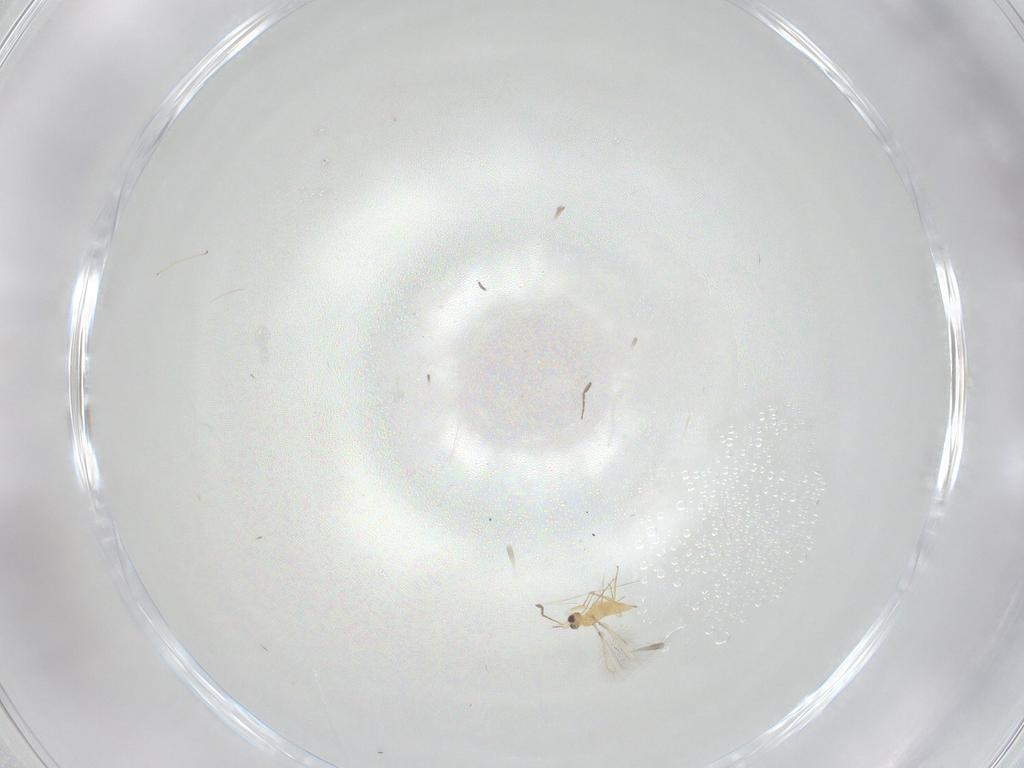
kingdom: Animalia
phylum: Arthropoda
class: Insecta
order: Hymenoptera
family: Mymaridae
